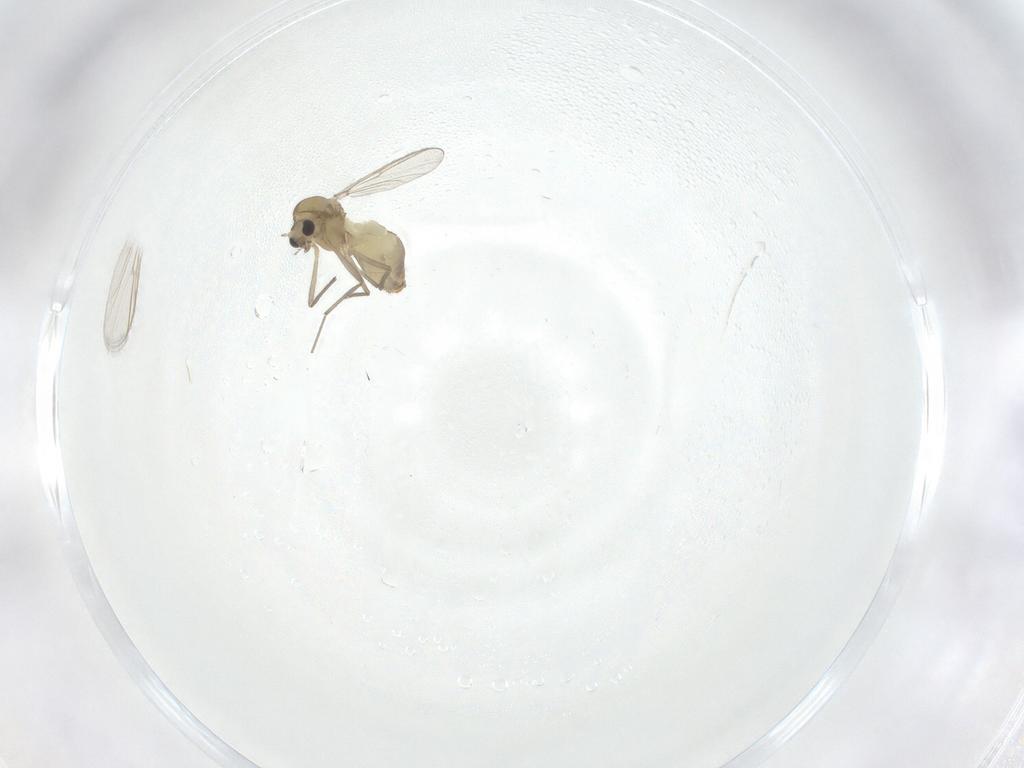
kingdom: Animalia
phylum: Arthropoda
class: Insecta
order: Diptera
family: Chironomidae
